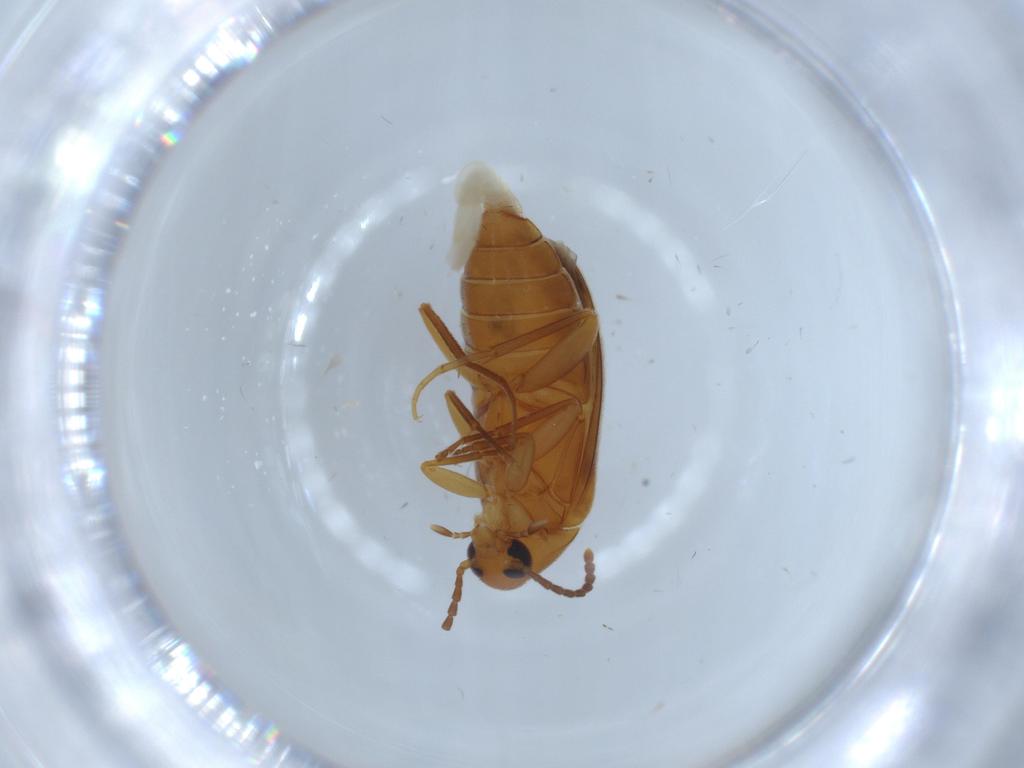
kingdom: Animalia
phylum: Arthropoda
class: Insecta
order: Coleoptera
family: Scraptiidae
